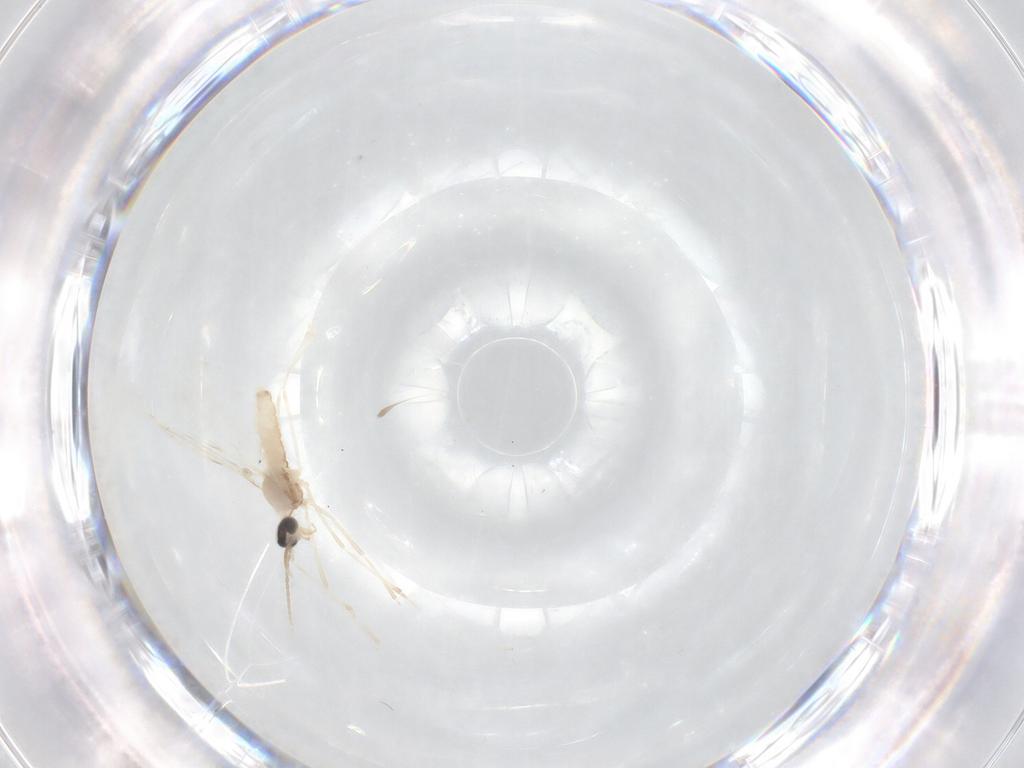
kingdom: Animalia
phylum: Arthropoda
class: Insecta
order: Diptera
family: Cecidomyiidae
